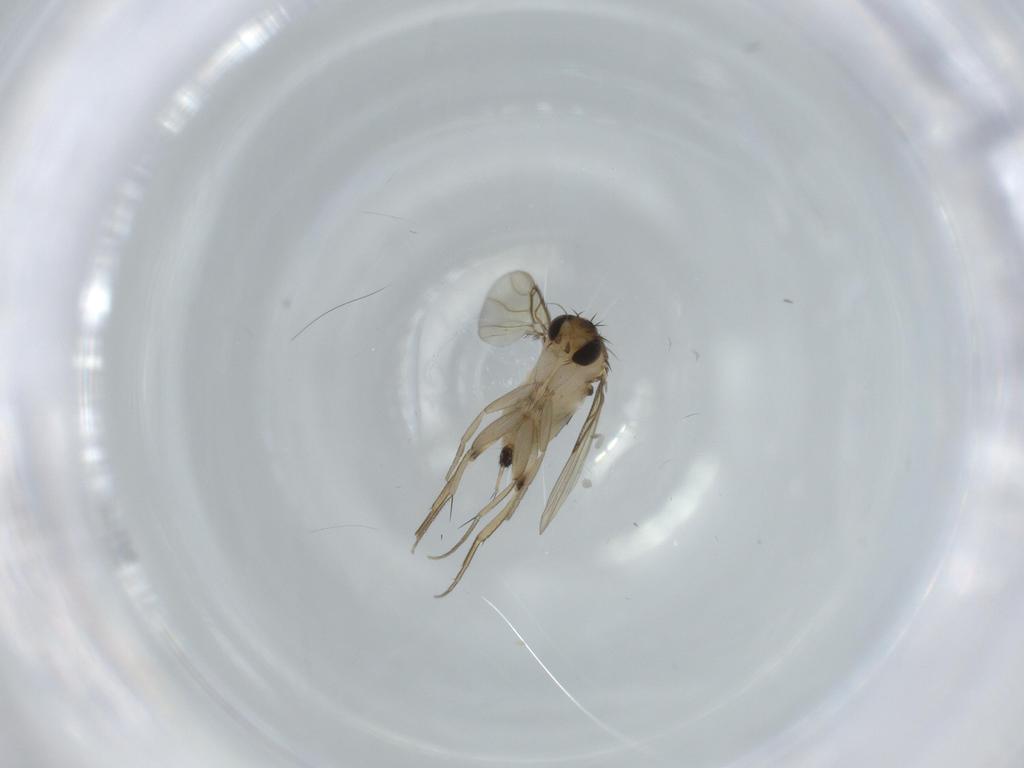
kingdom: Animalia
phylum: Arthropoda
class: Insecta
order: Diptera
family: Phoridae
